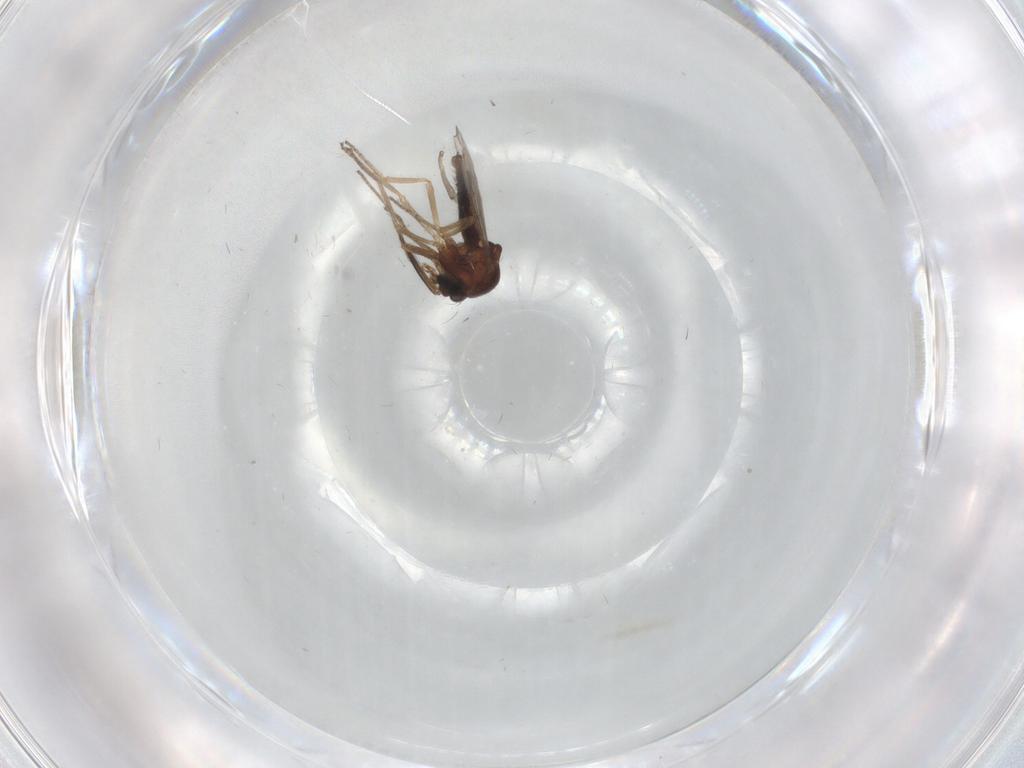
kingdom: Animalia
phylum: Arthropoda
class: Insecta
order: Diptera
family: Ceratopogonidae
